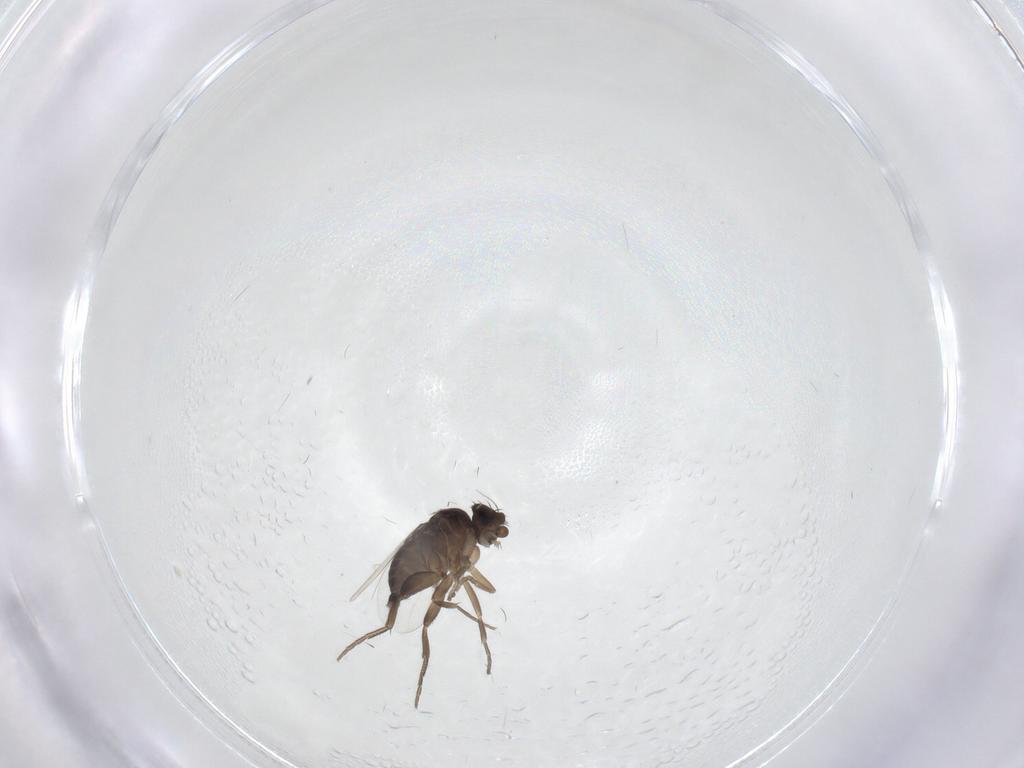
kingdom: Animalia
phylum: Arthropoda
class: Insecta
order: Diptera
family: Phoridae
